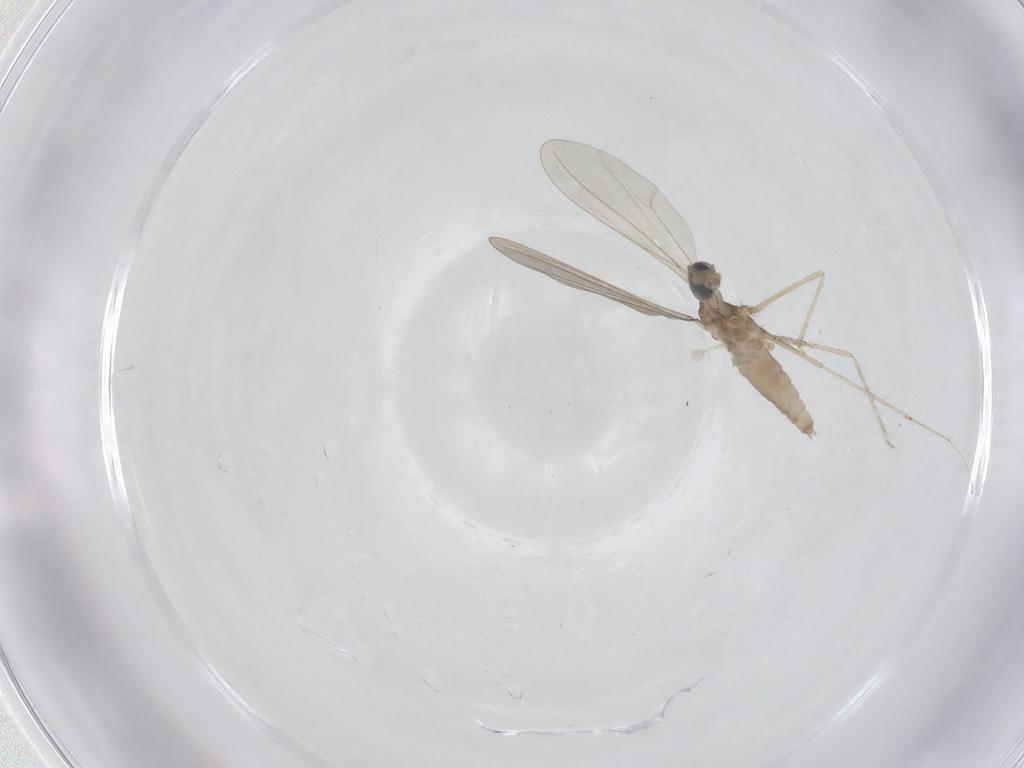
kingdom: Animalia
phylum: Arthropoda
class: Insecta
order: Diptera
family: Cecidomyiidae
